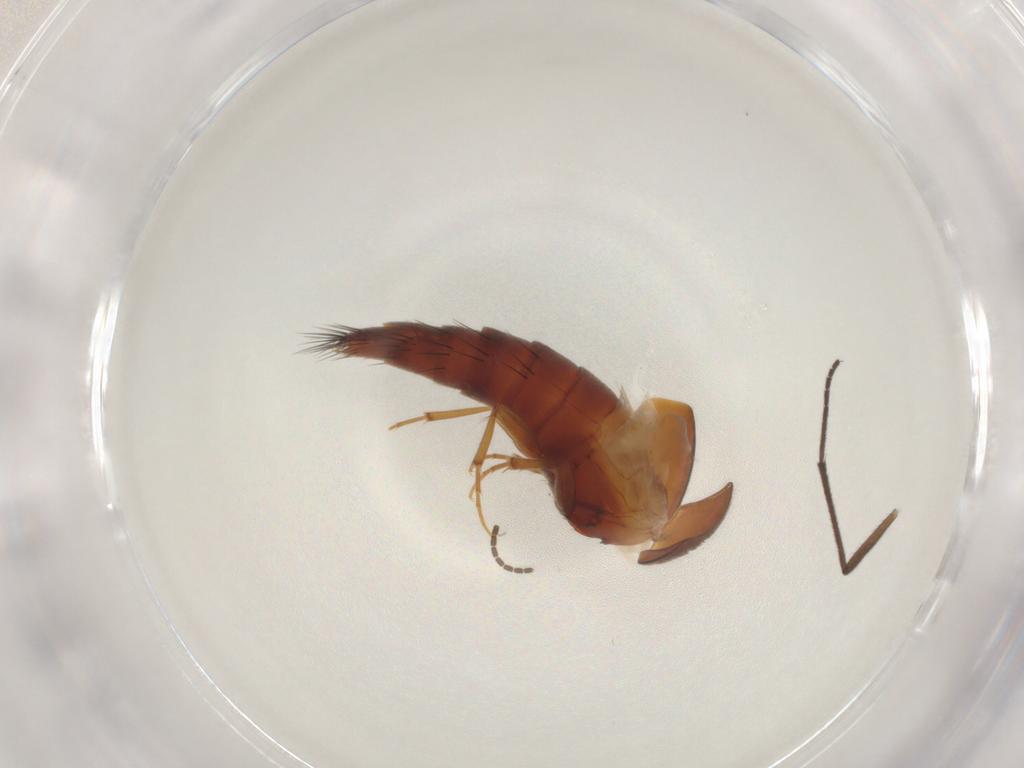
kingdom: Animalia
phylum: Arthropoda
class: Insecta
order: Coleoptera
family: Staphylinidae
